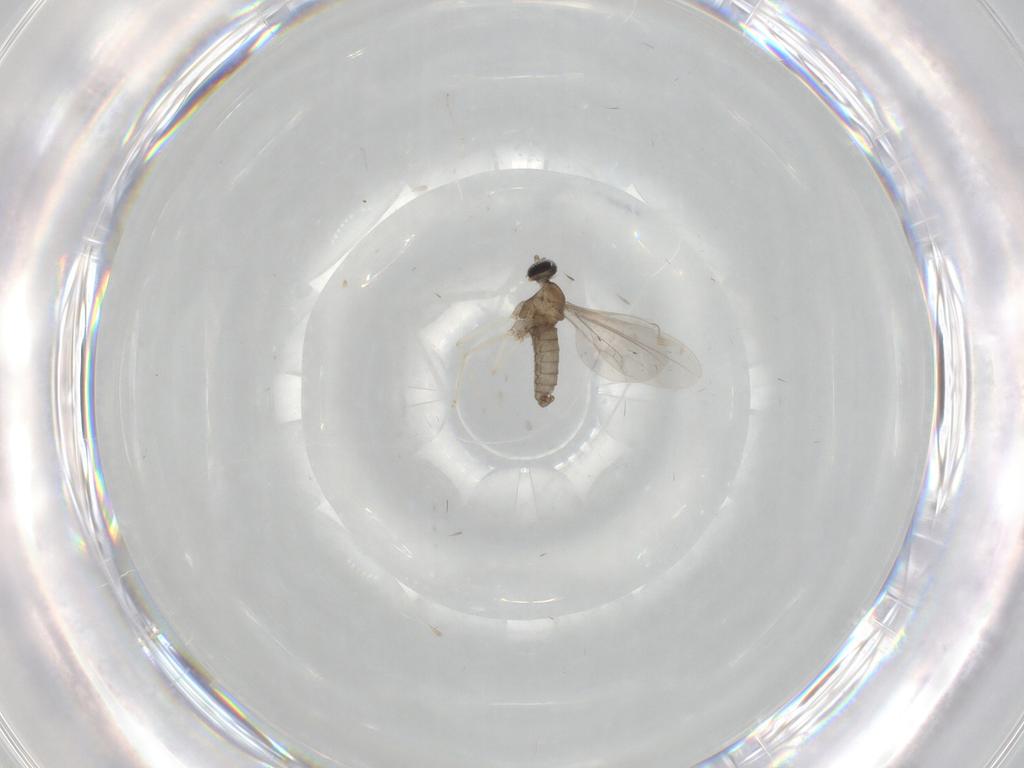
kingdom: Animalia
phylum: Arthropoda
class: Insecta
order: Diptera
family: Cecidomyiidae
